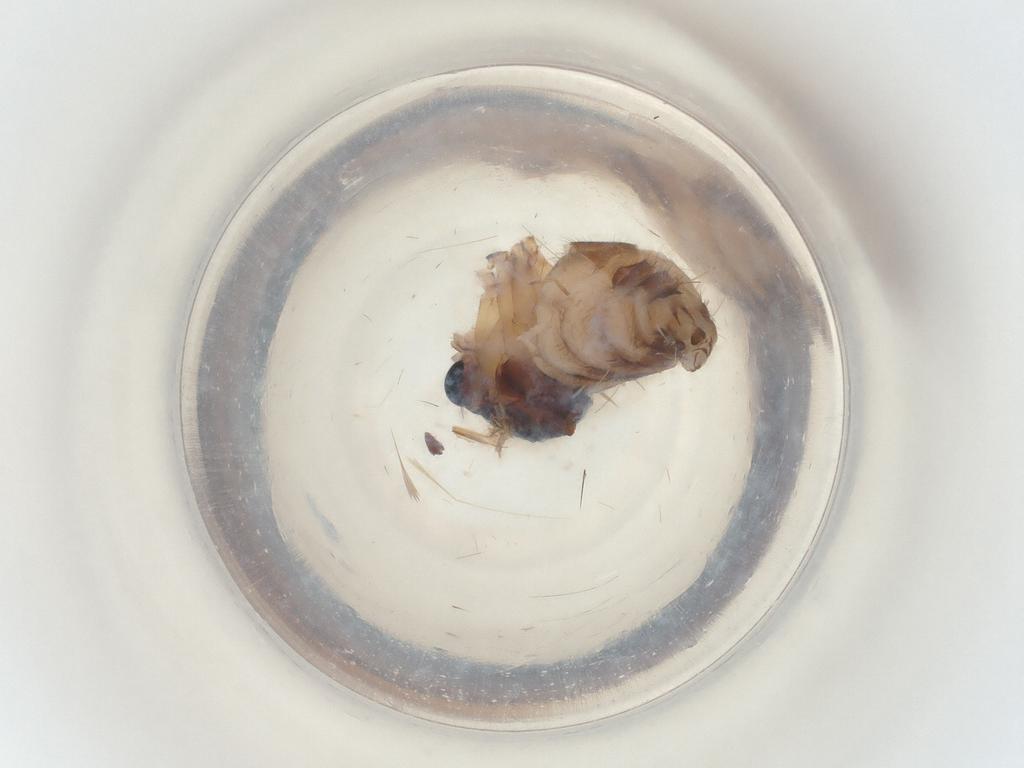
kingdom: Animalia
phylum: Arthropoda
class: Insecta
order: Diptera
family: Sciaridae
